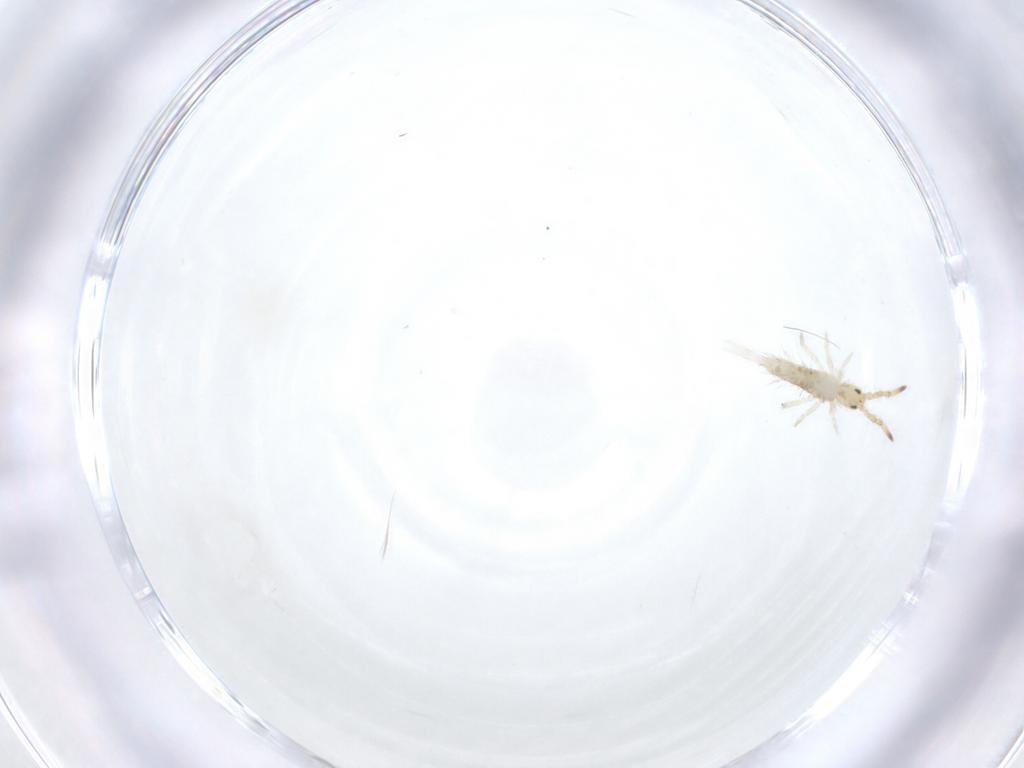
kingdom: Animalia
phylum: Arthropoda
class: Collembola
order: Entomobryomorpha
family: Entomobryidae
